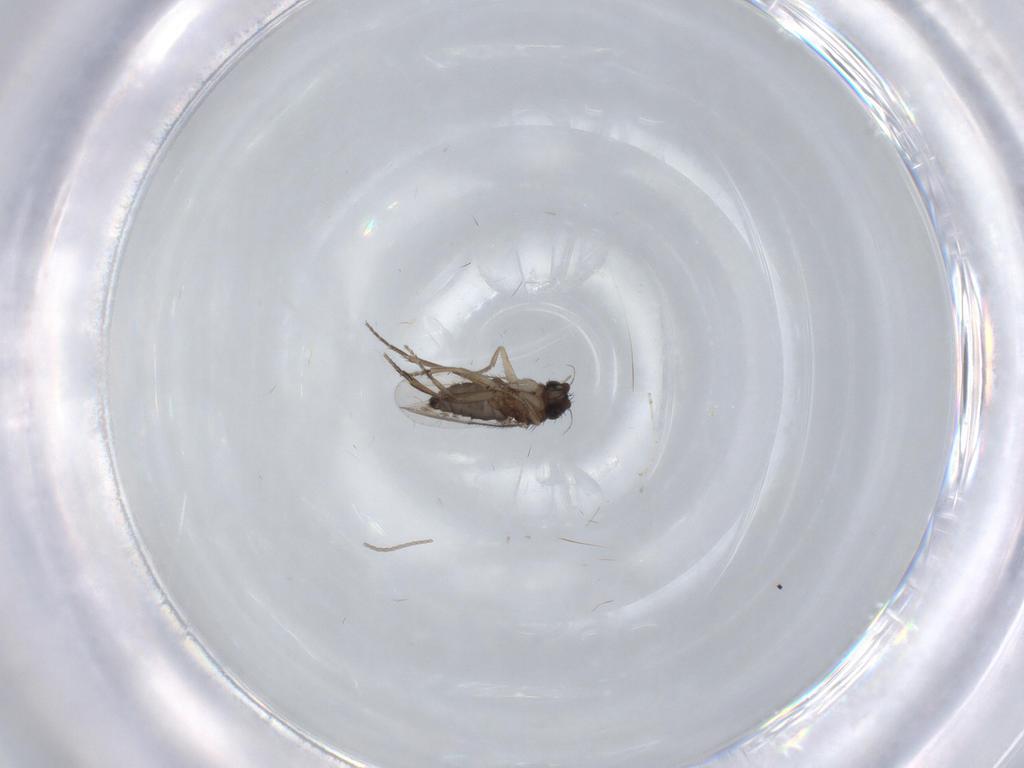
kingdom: Animalia
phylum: Arthropoda
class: Insecta
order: Diptera
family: Phoridae
